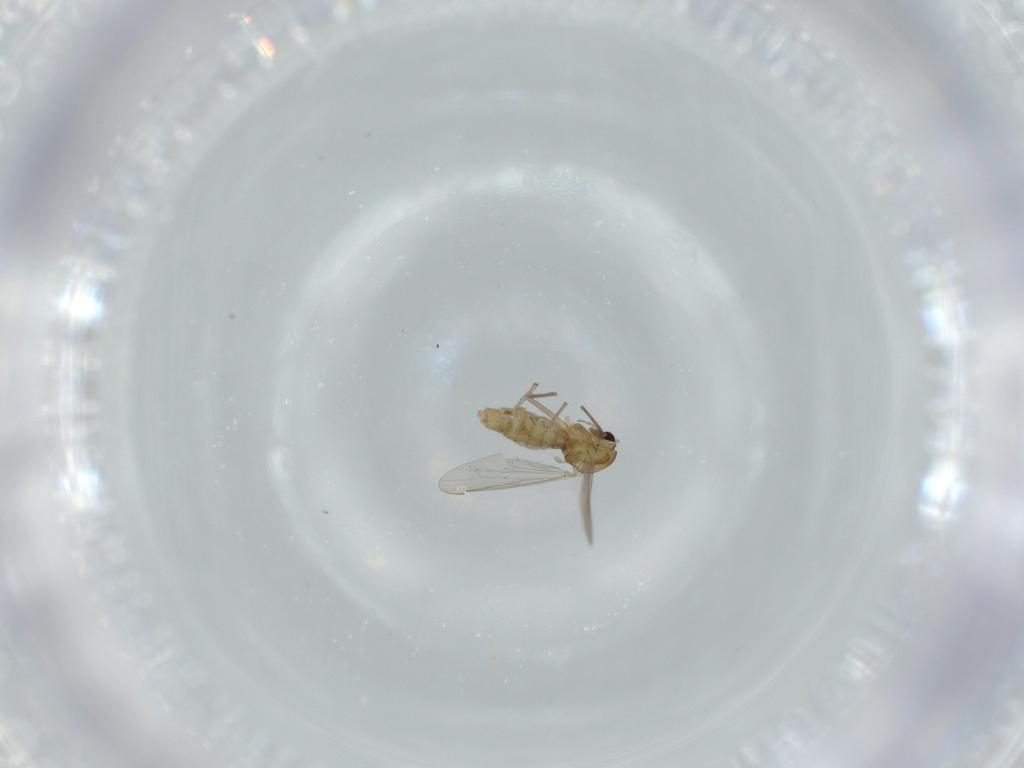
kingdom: Animalia
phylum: Arthropoda
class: Insecta
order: Diptera
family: Chironomidae
